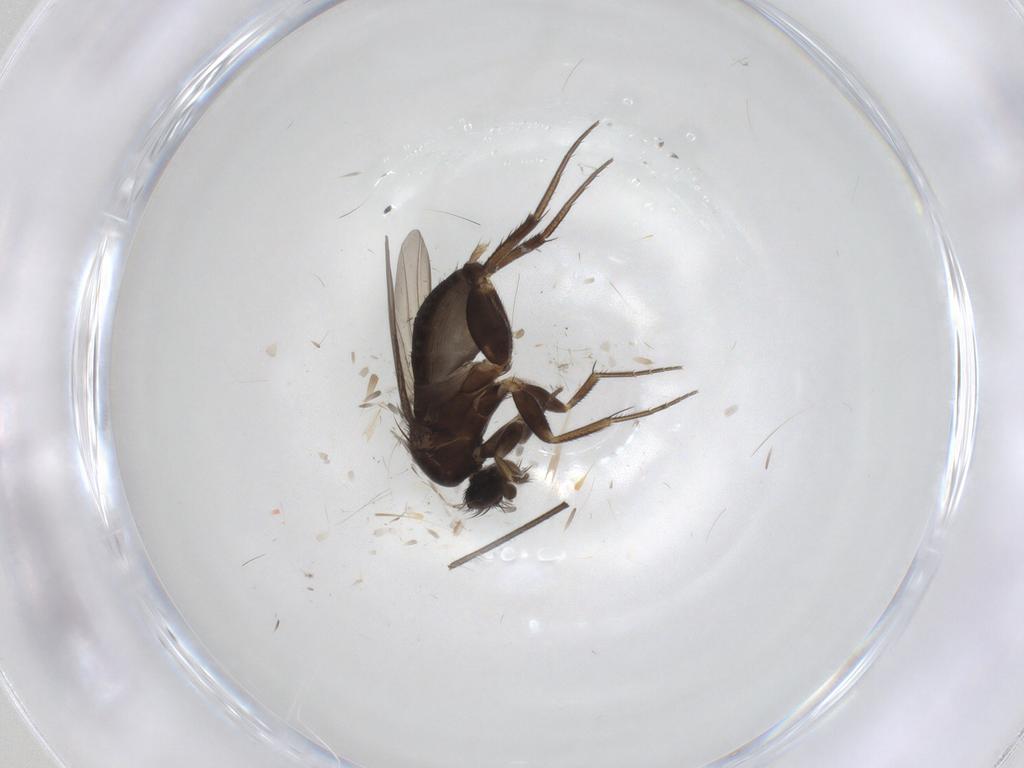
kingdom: Animalia
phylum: Arthropoda
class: Insecta
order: Diptera
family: Phoridae
